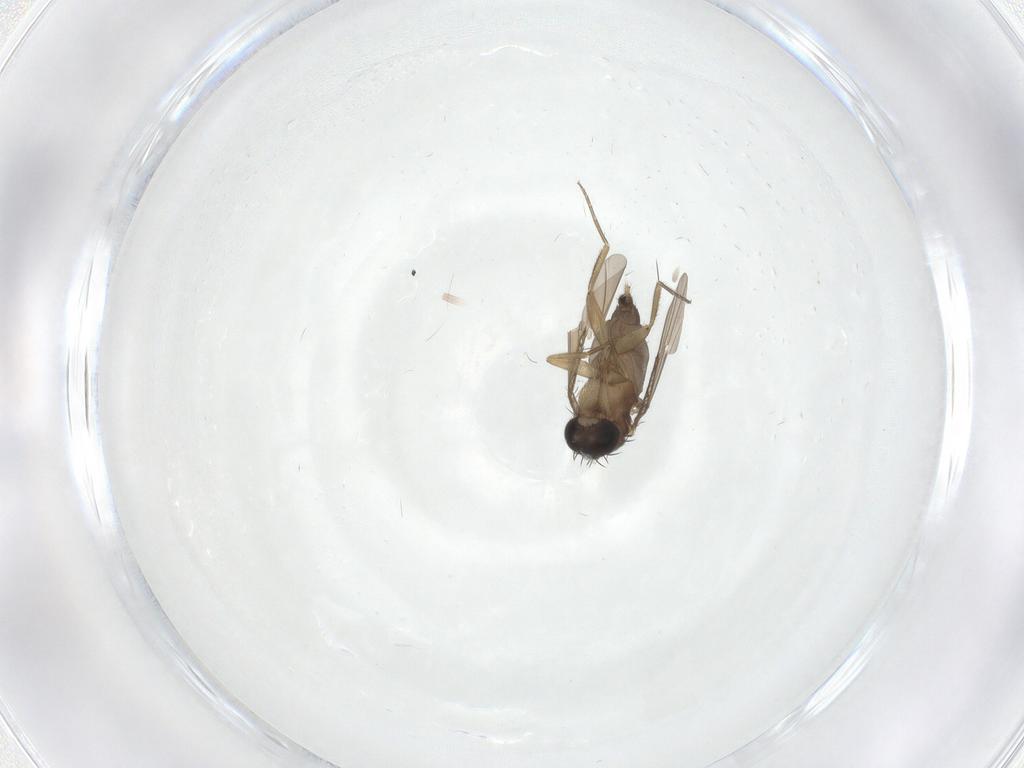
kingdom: Animalia
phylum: Arthropoda
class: Insecta
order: Diptera
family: Phoridae
